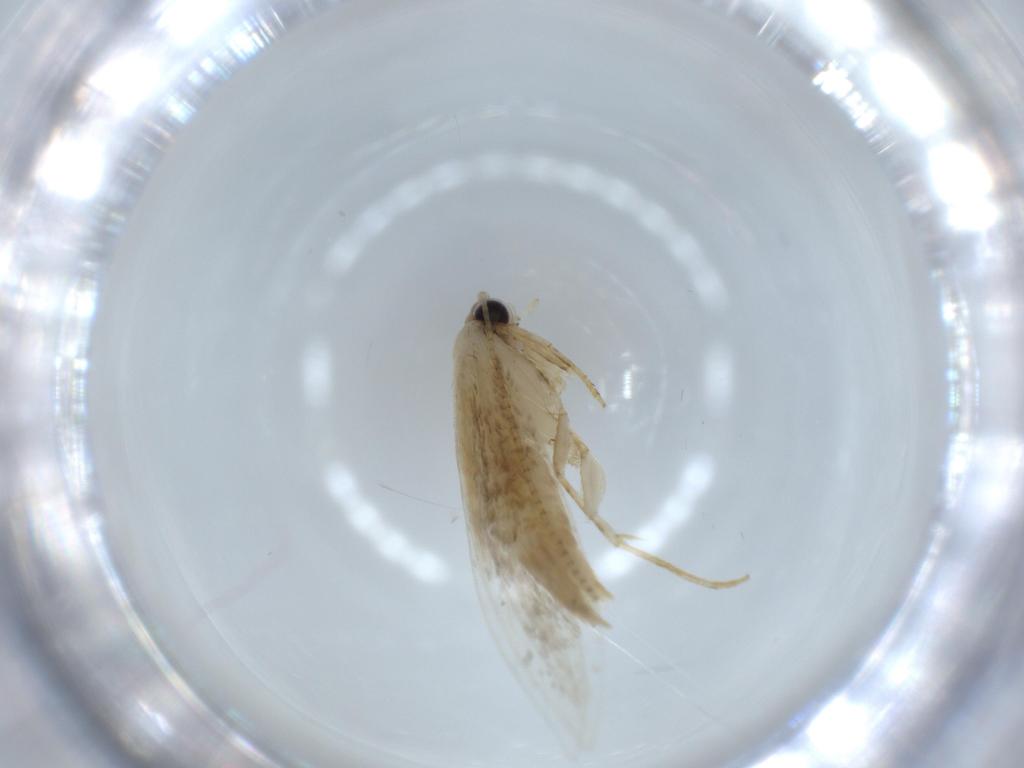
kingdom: Animalia
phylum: Arthropoda
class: Insecta
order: Lepidoptera
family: Tineidae
